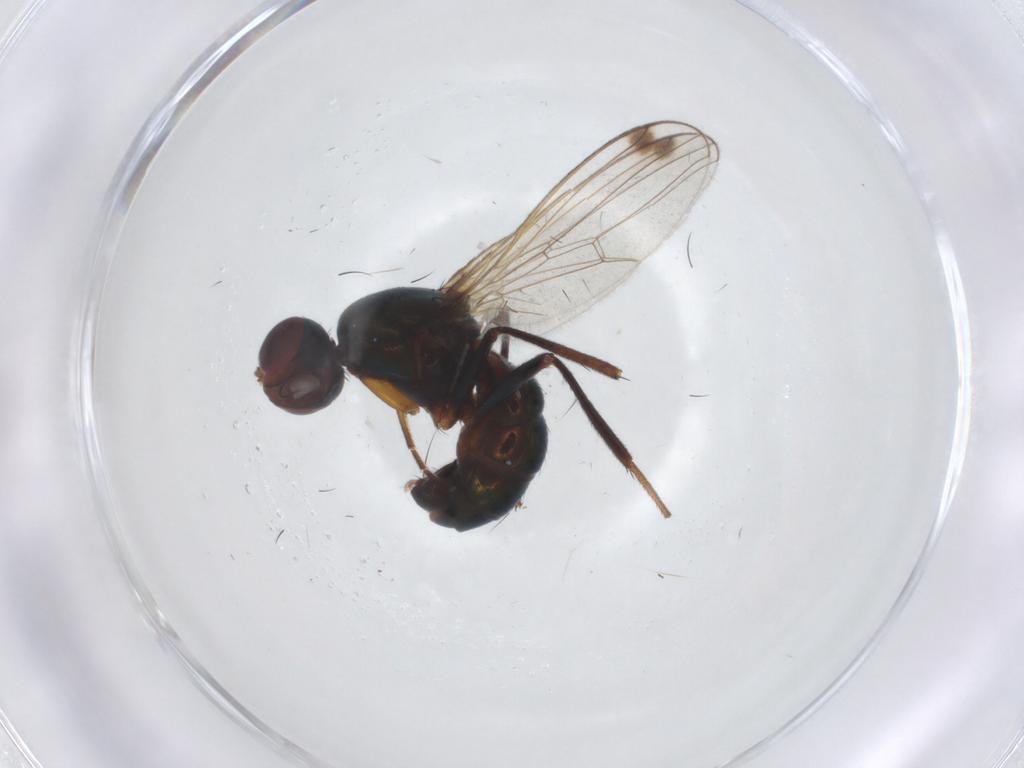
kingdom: Animalia
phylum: Arthropoda
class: Insecta
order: Diptera
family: Sepsidae
